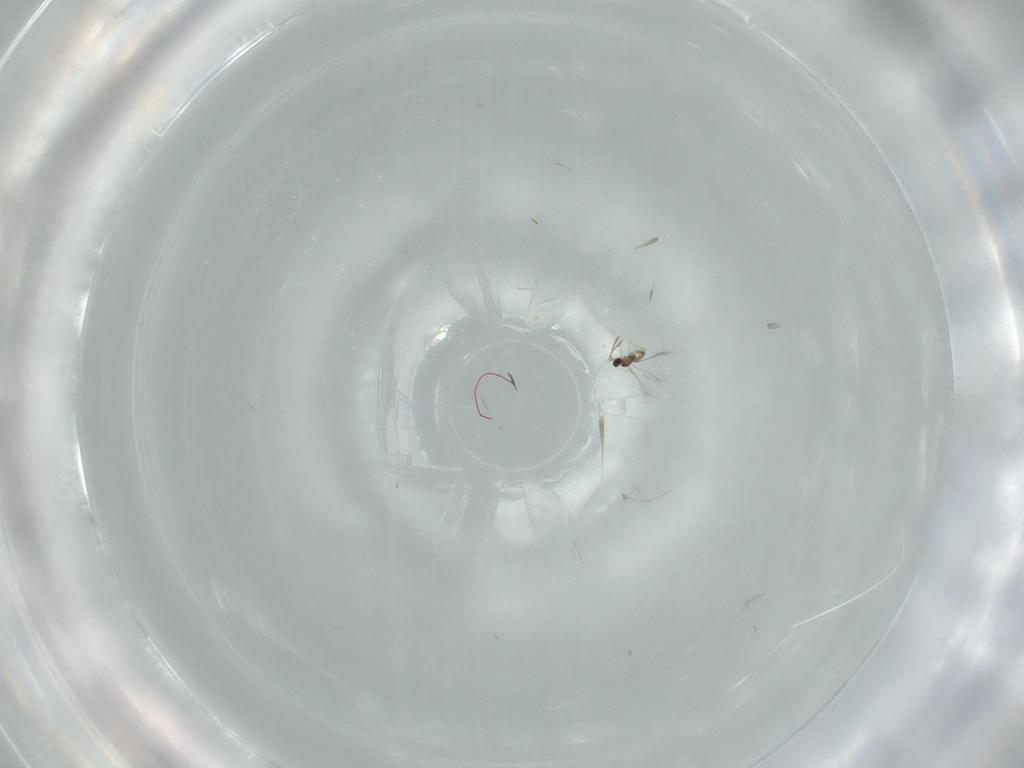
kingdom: Animalia
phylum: Arthropoda
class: Insecta
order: Hymenoptera
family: Mymaridae
